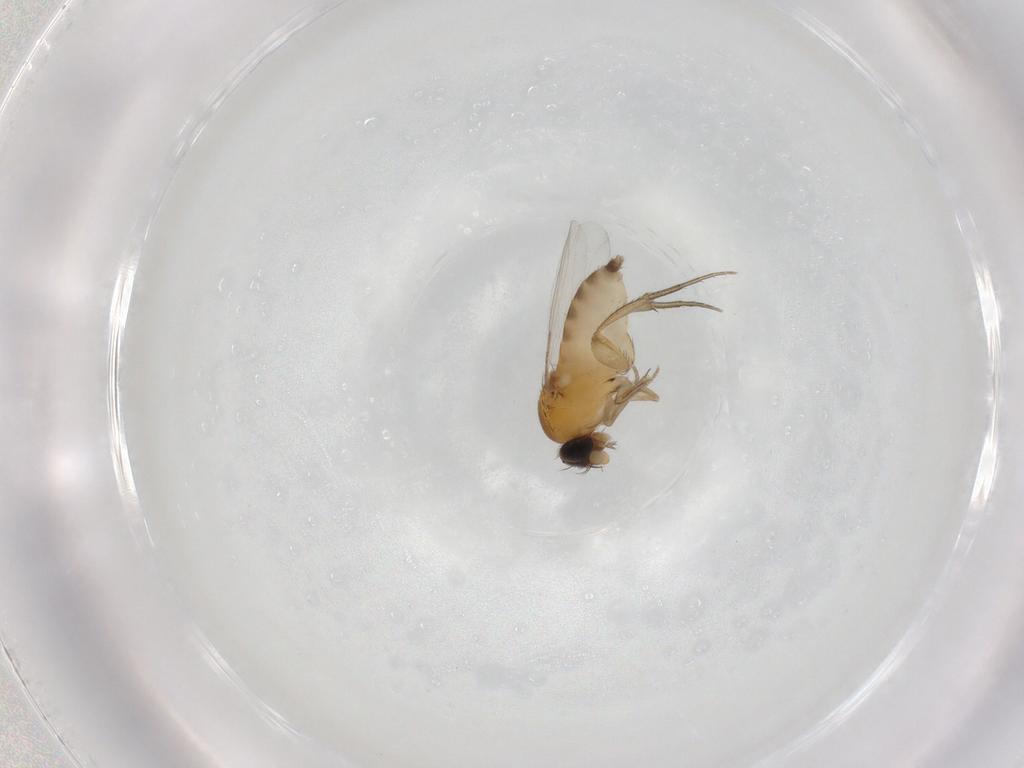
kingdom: Animalia
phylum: Arthropoda
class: Insecta
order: Diptera
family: Phoridae
